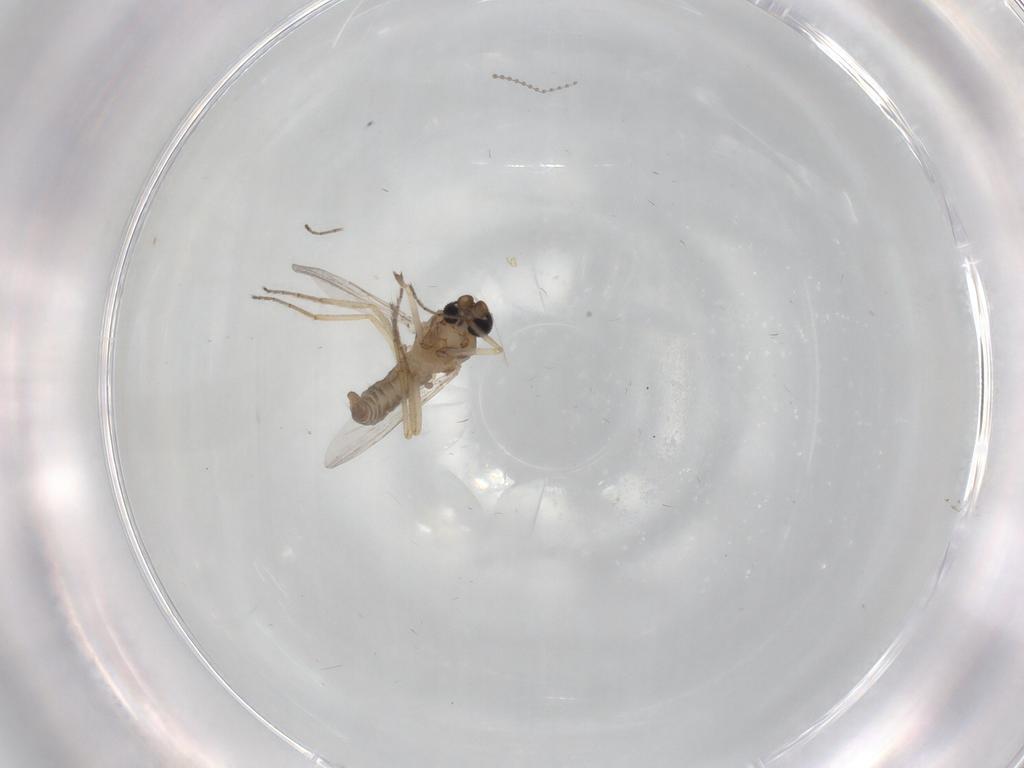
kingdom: Animalia
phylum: Arthropoda
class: Insecta
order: Diptera
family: Ceratopogonidae
